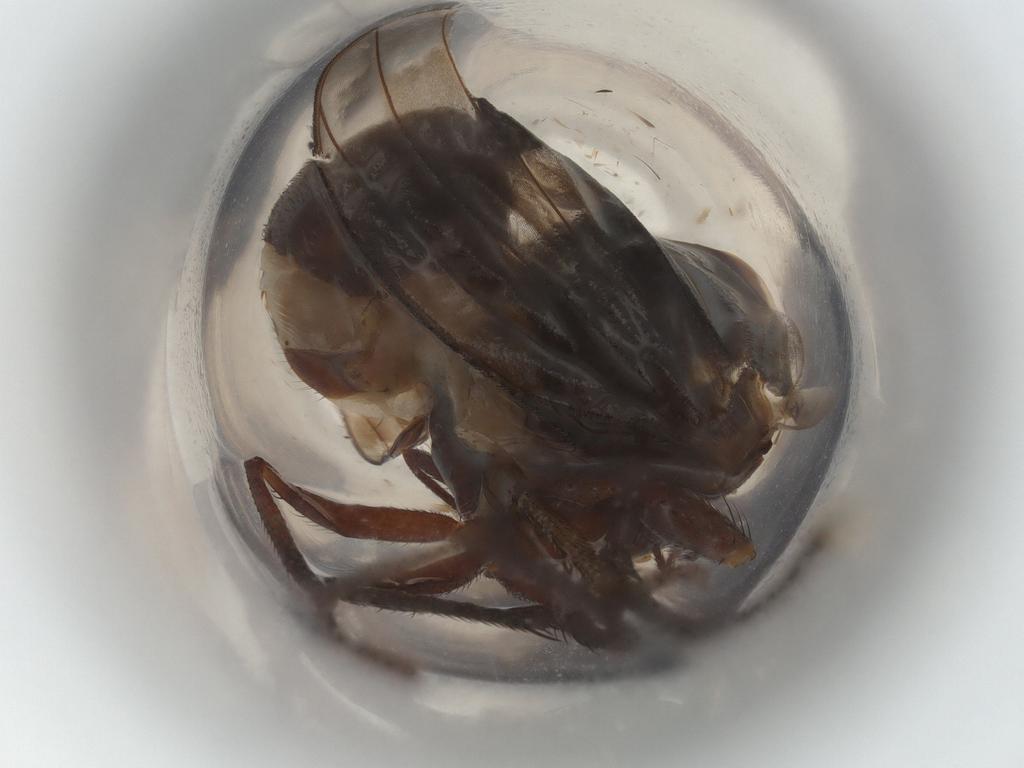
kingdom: Animalia
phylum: Arthropoda
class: Insecta
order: Diptera
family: Muscidae
